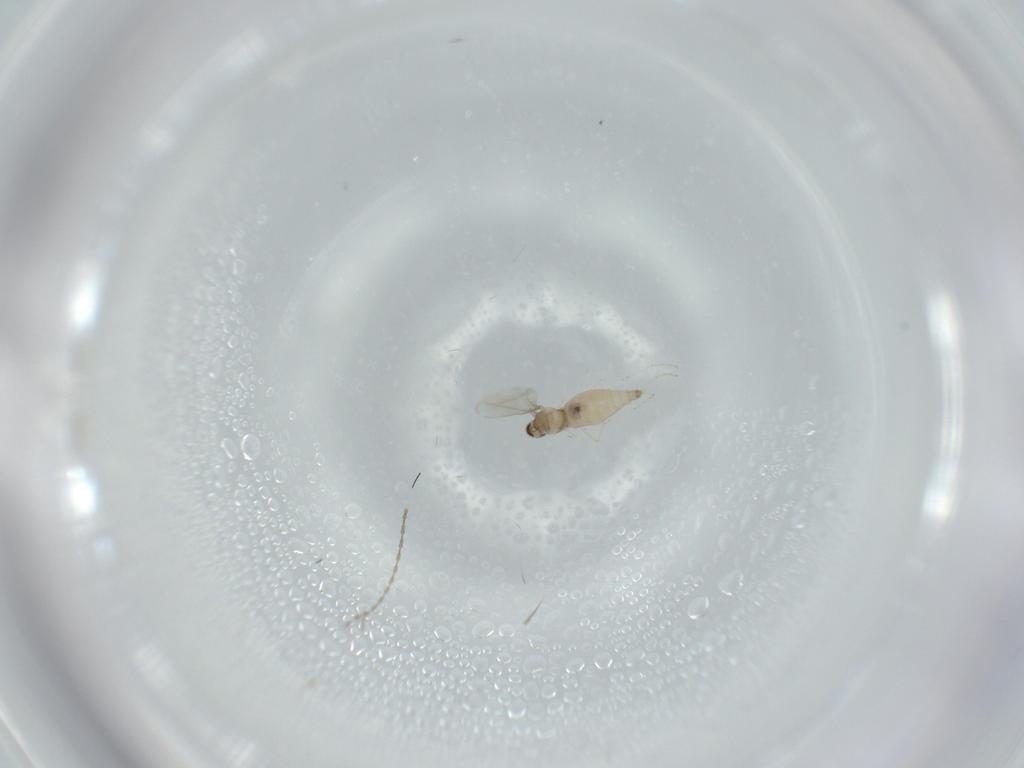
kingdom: Animalia
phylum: Arthropoda
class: Insecta
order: Diptera
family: Cecidomyiidae
